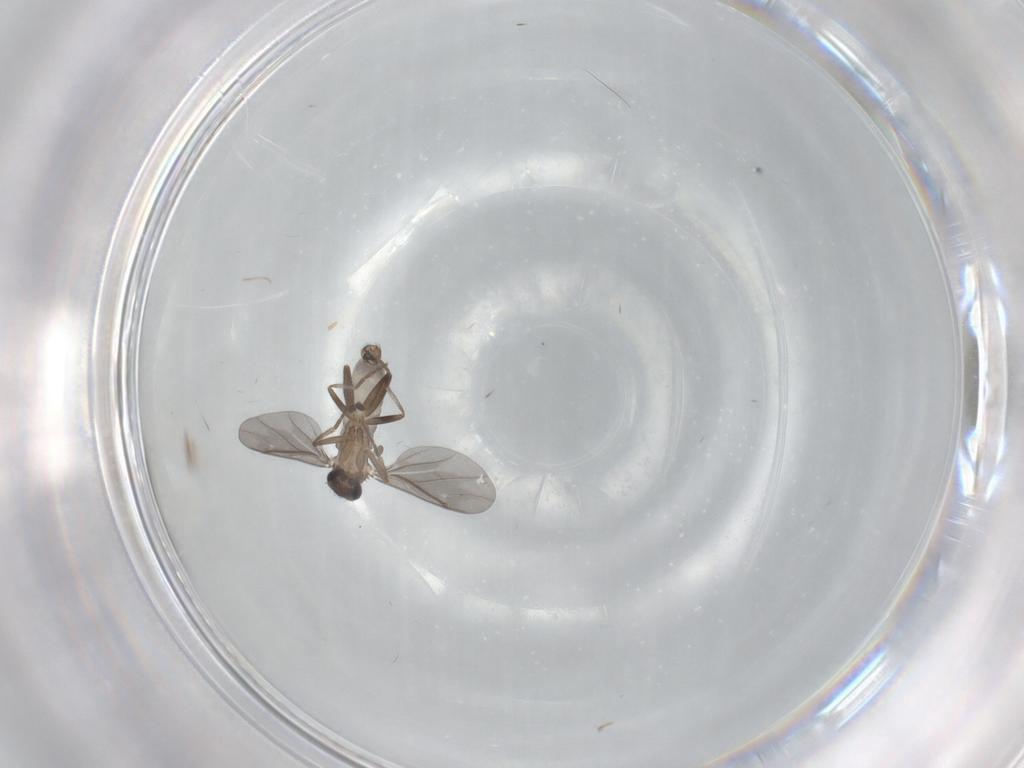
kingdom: Animalia
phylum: Arthropoda
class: Insecta
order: Diptera
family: Phoridae
